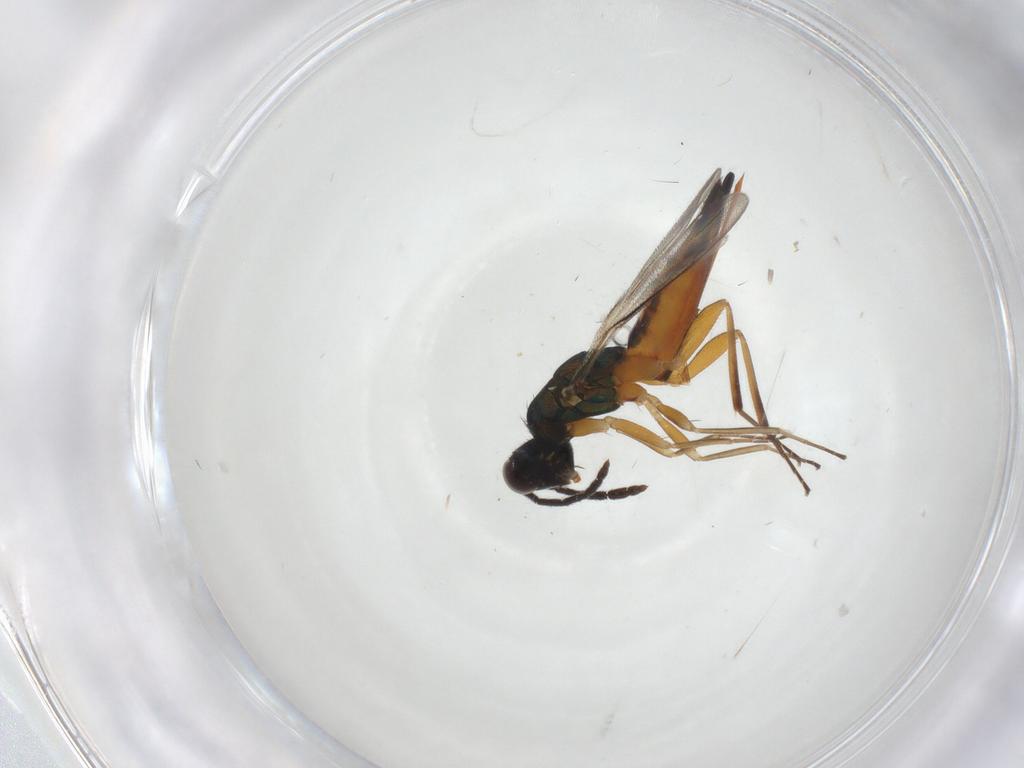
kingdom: Animalia
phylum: Arthropoda
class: Insecta
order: Hymenoptera
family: Eulophidae
